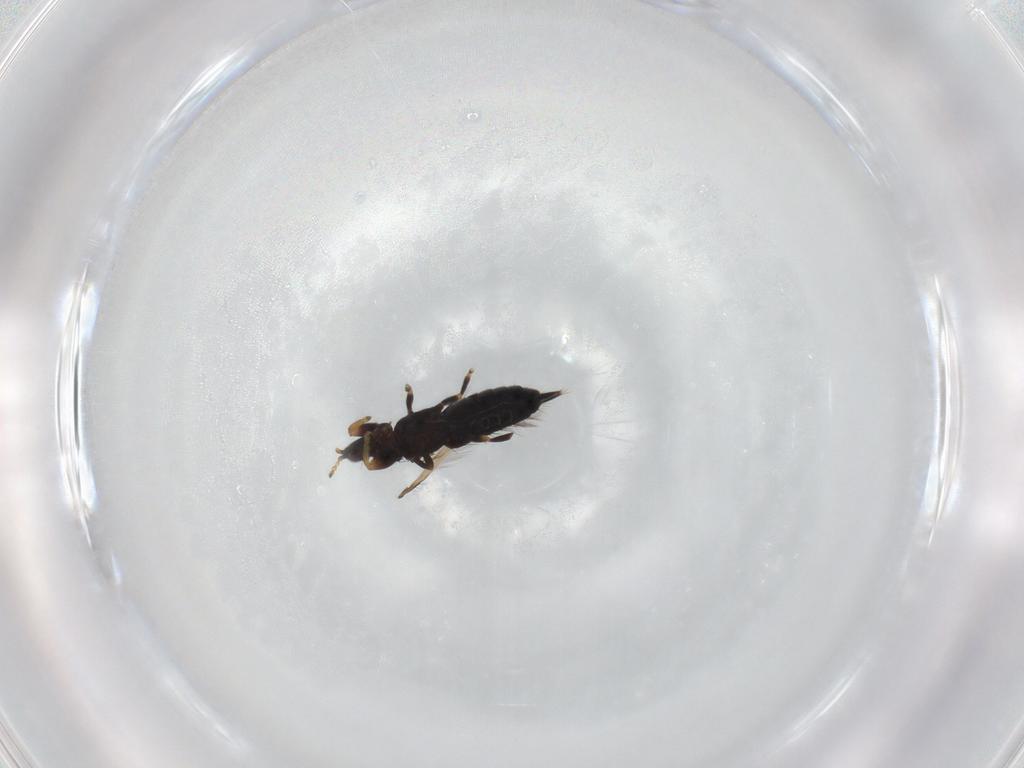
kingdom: Animalia
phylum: Arthropoda
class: Insecta
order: Thysanoptera
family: Phlaeothripidae
